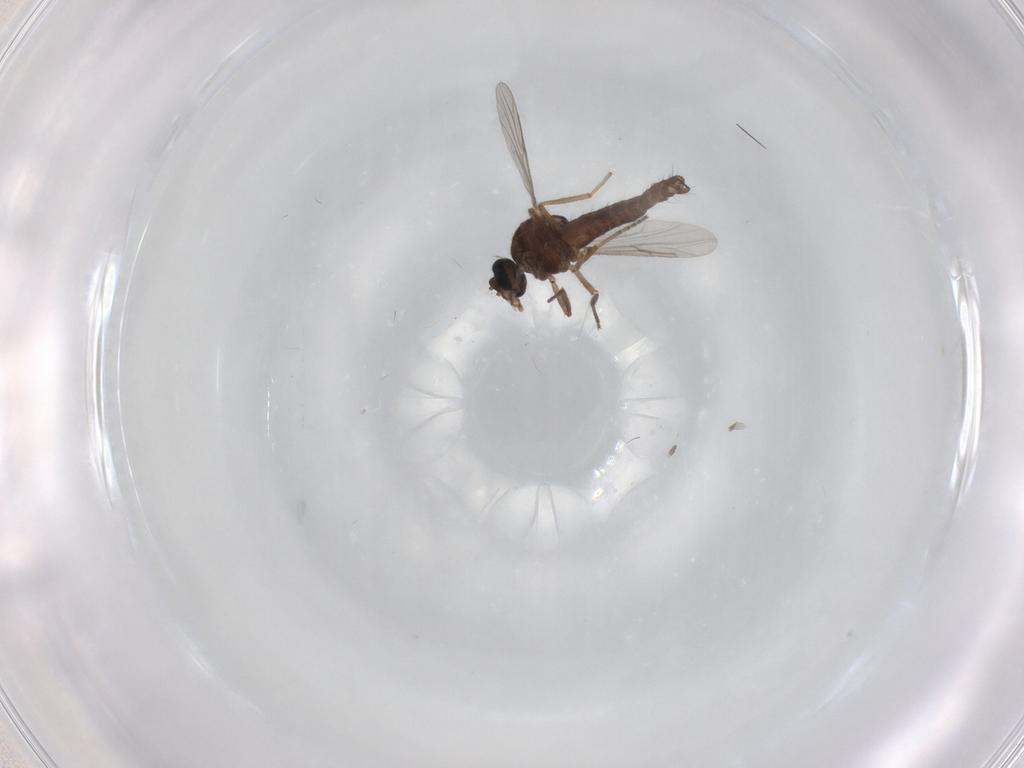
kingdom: Animalia
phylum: Arthropoda
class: Insecta
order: Diptera
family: Ceratopogonidae
